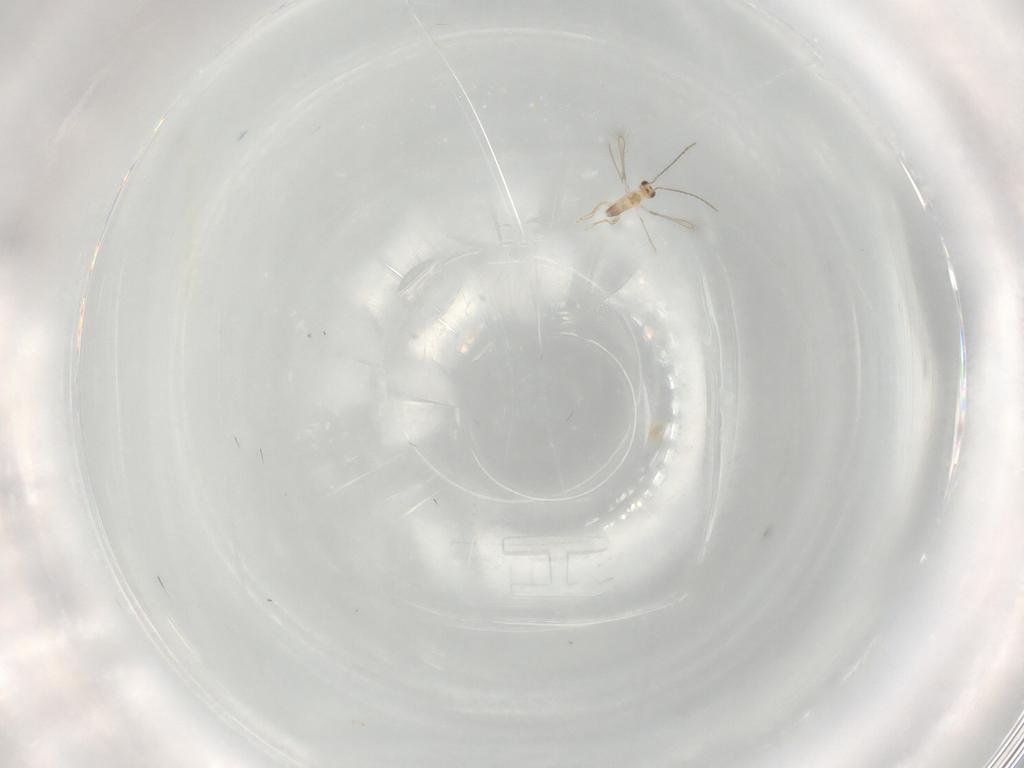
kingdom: Animalia
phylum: Arthropoda
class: Insecta
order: Hymenoptera
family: Mymaridae
